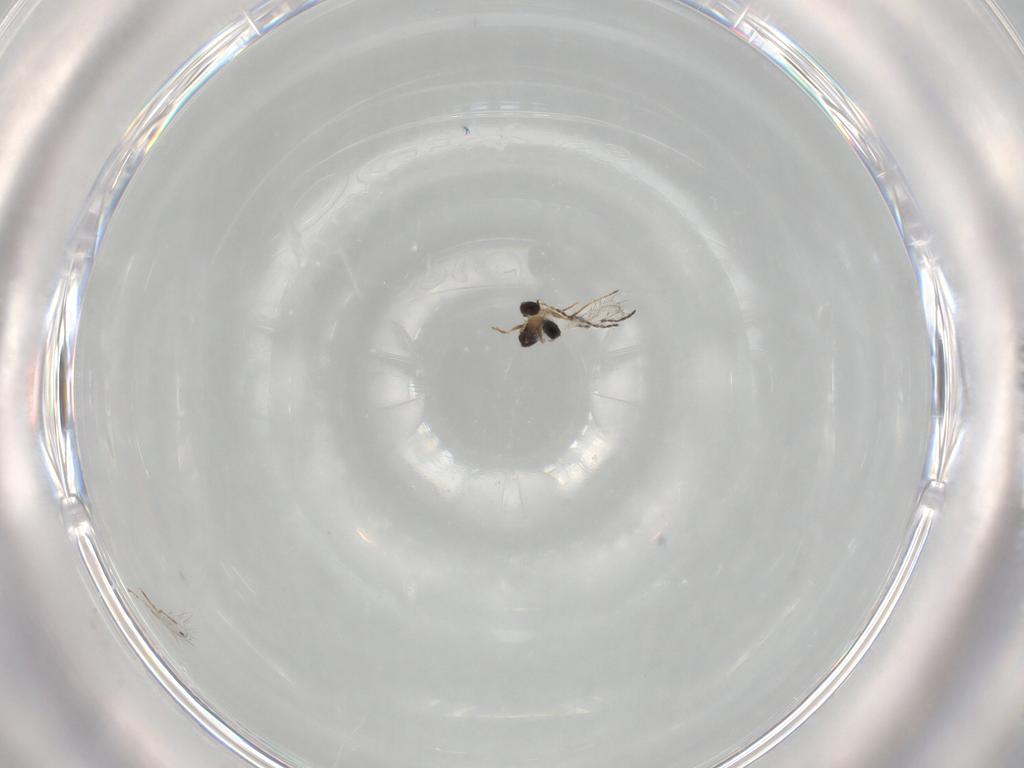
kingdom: Animalia
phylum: Arthropoda
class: Insecta
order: Hymenoptera
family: Mymaridae
